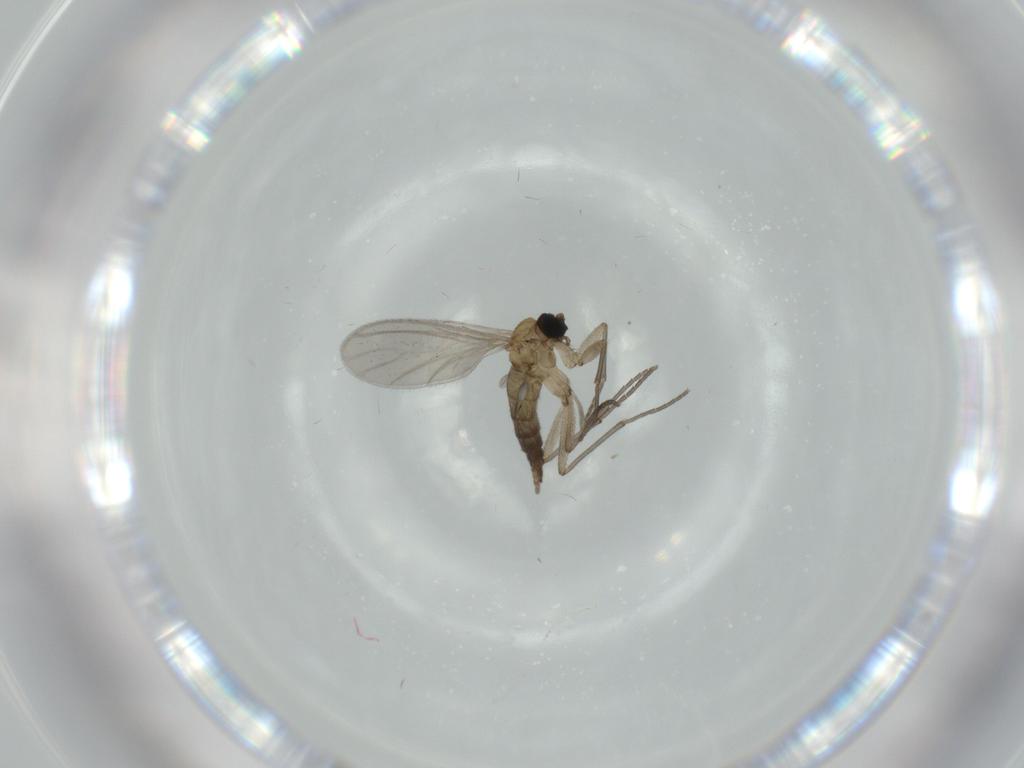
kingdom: Animalia
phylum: Arthropoda
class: Insecta
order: Diptera
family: Sciaridae
